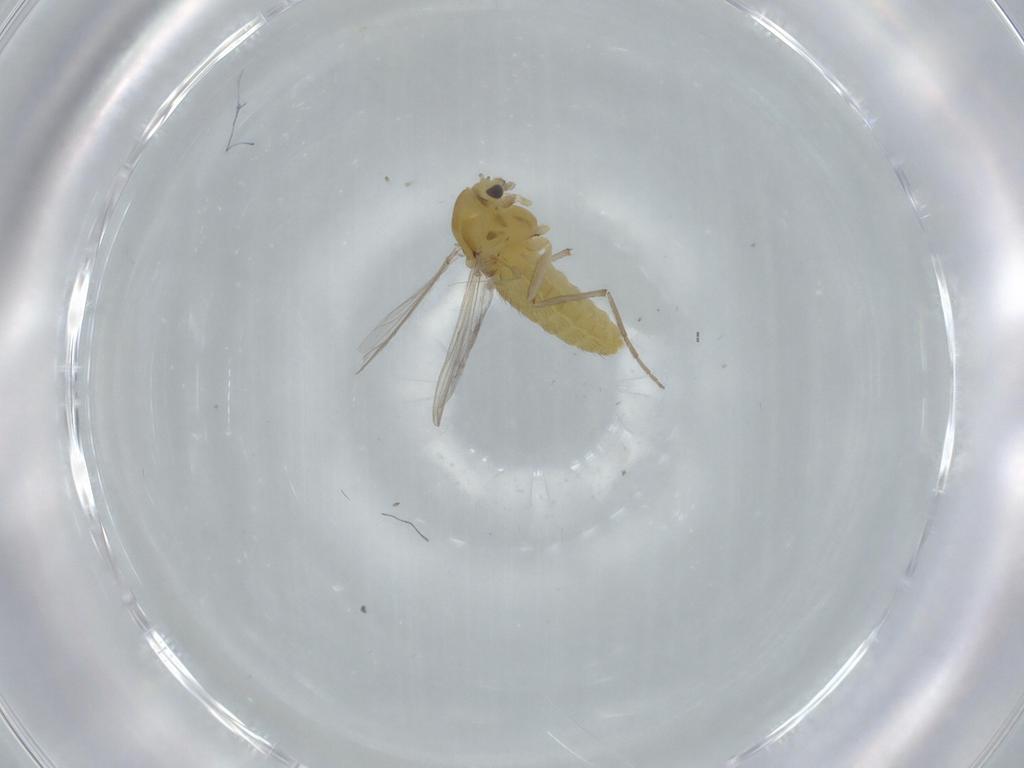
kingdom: Animalia
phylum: Arthropoda
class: Insecta
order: Diptera
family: Chironomidae
